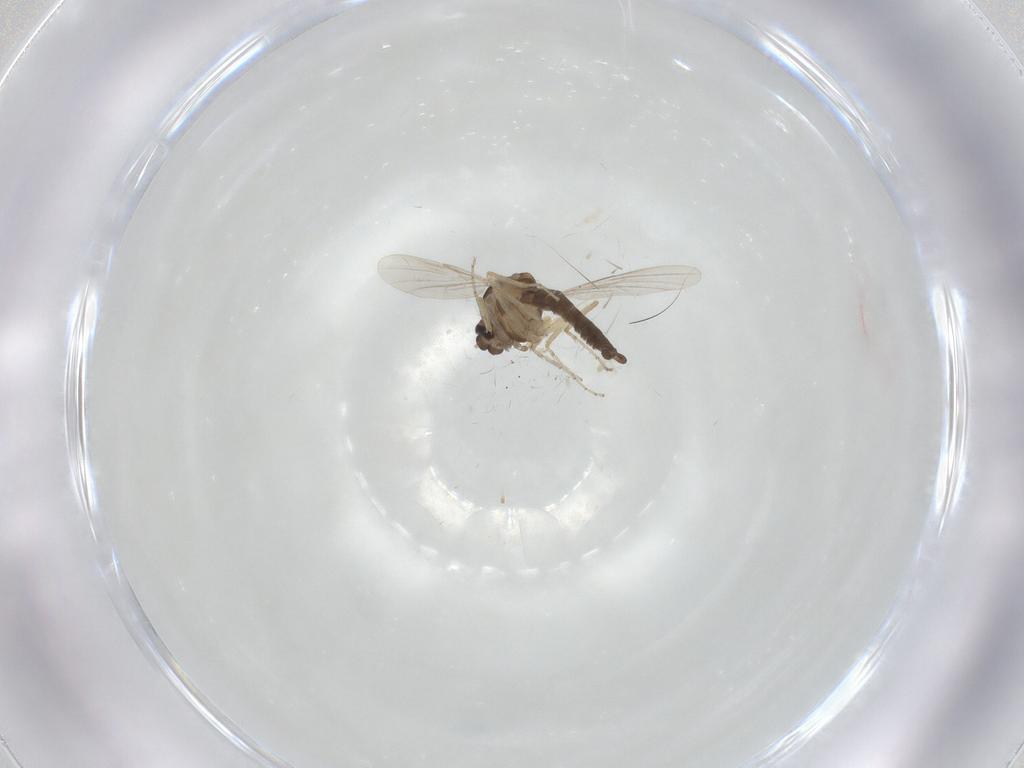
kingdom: Animalia
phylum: Arthropoda
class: Insecta
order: Diptera
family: Ceratopogonidae
